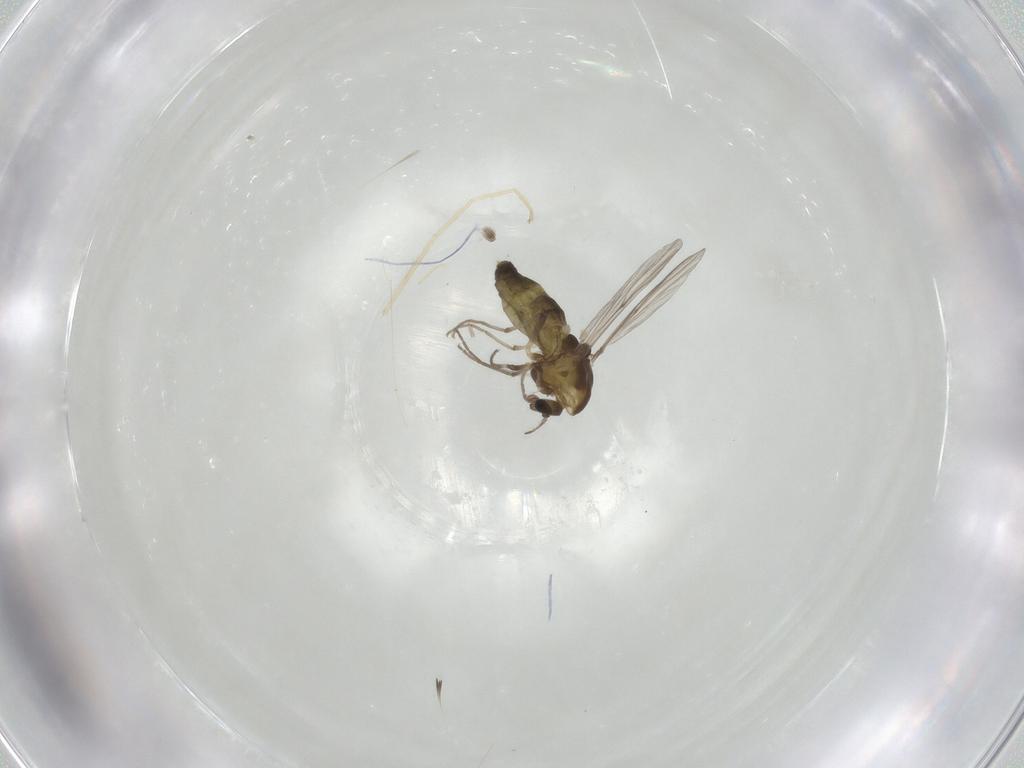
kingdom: Animalia
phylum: Arthropoda
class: Insecta
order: Diptera
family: Chironomidae
